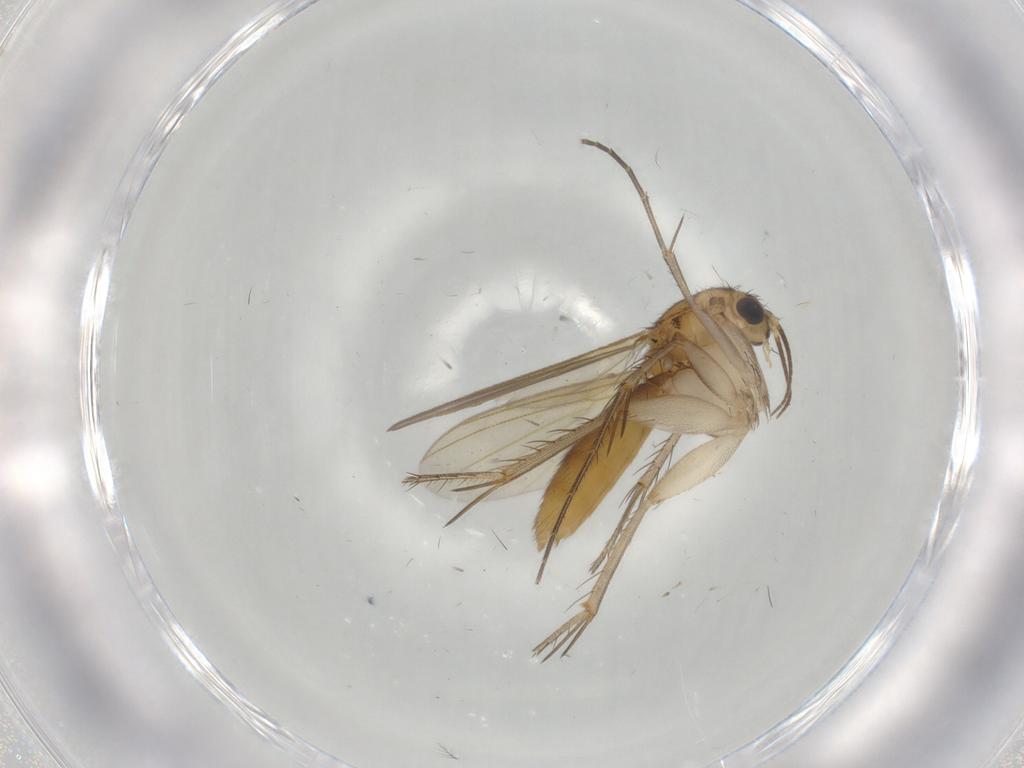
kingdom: Animalia
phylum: Arthropoda
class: Insecta
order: Diptera
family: Mycetophilidae
